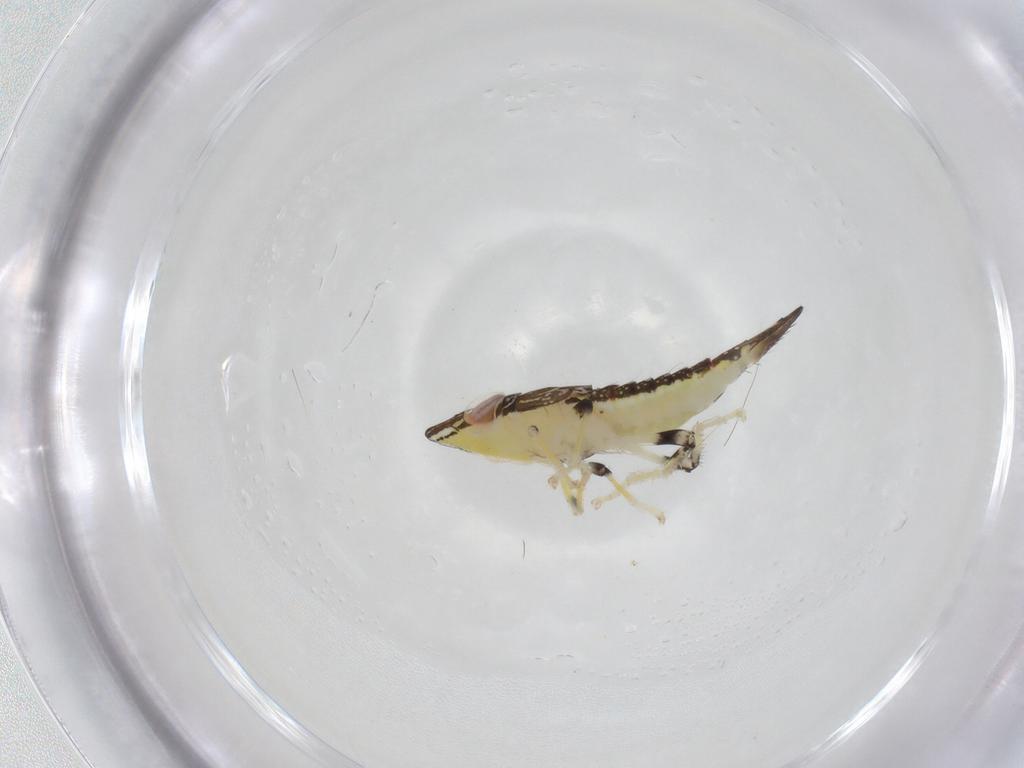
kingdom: Animalia
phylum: Arthropoda
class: Insecta
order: Hemiptera
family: Cicadellidae
